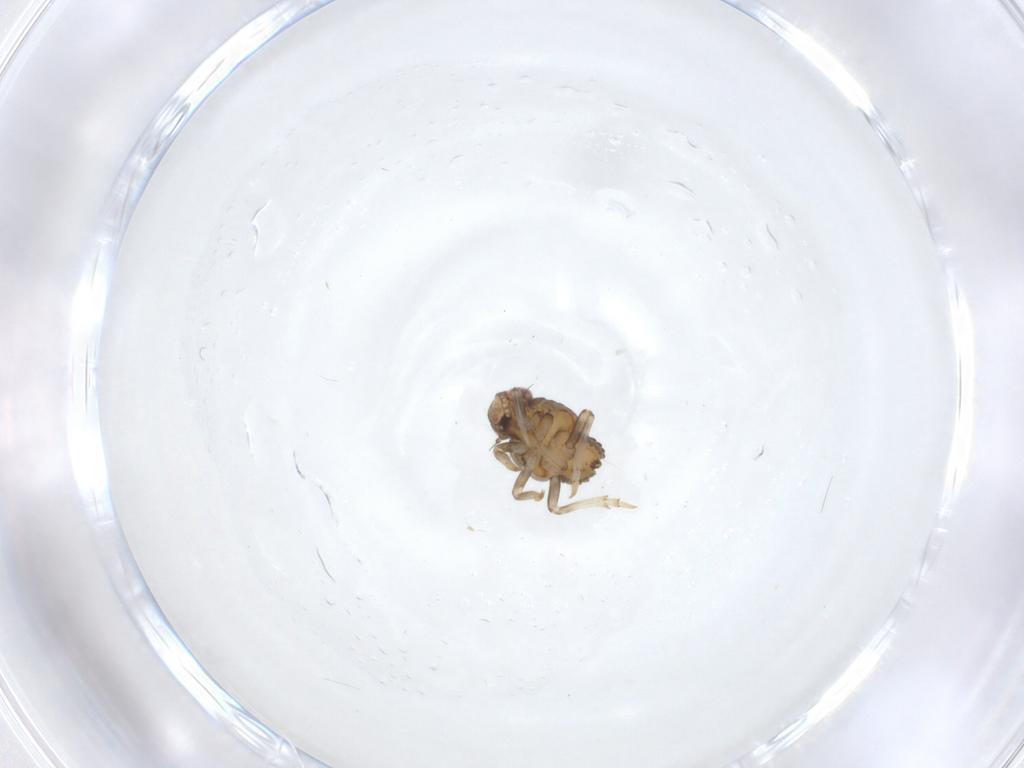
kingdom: Animalia
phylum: Arthropoda
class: Insecta
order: Hemiptera
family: Issidae
